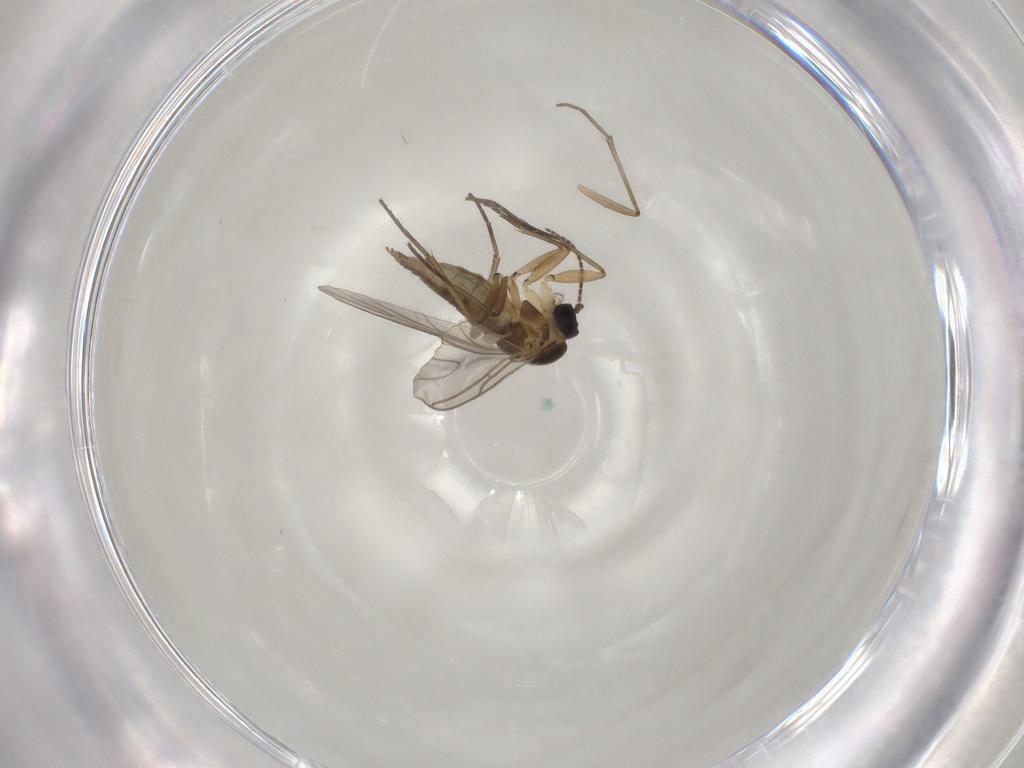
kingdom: Animalia
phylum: Arthropoda
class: Insecta
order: Diptera
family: Sciaridae
